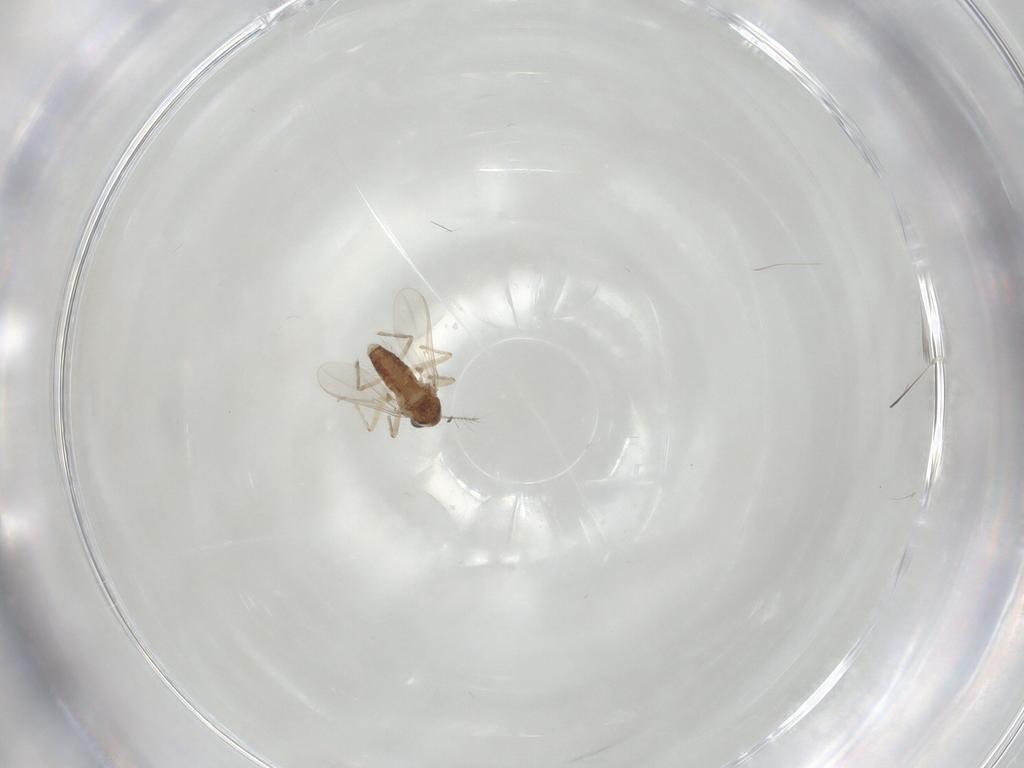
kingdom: Animalia
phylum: Arthropoda
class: Insecta
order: Diptera
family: Chironomidae
